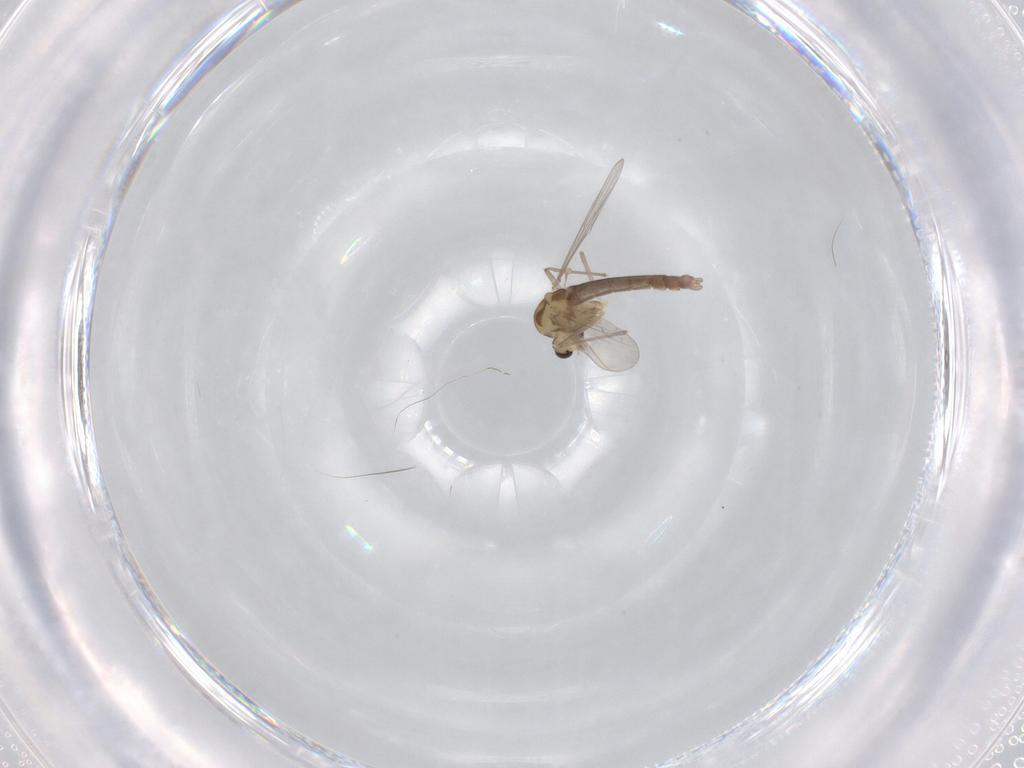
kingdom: Animalia
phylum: Arthropoda
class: Insecta
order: Diptera
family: Chironomidae
